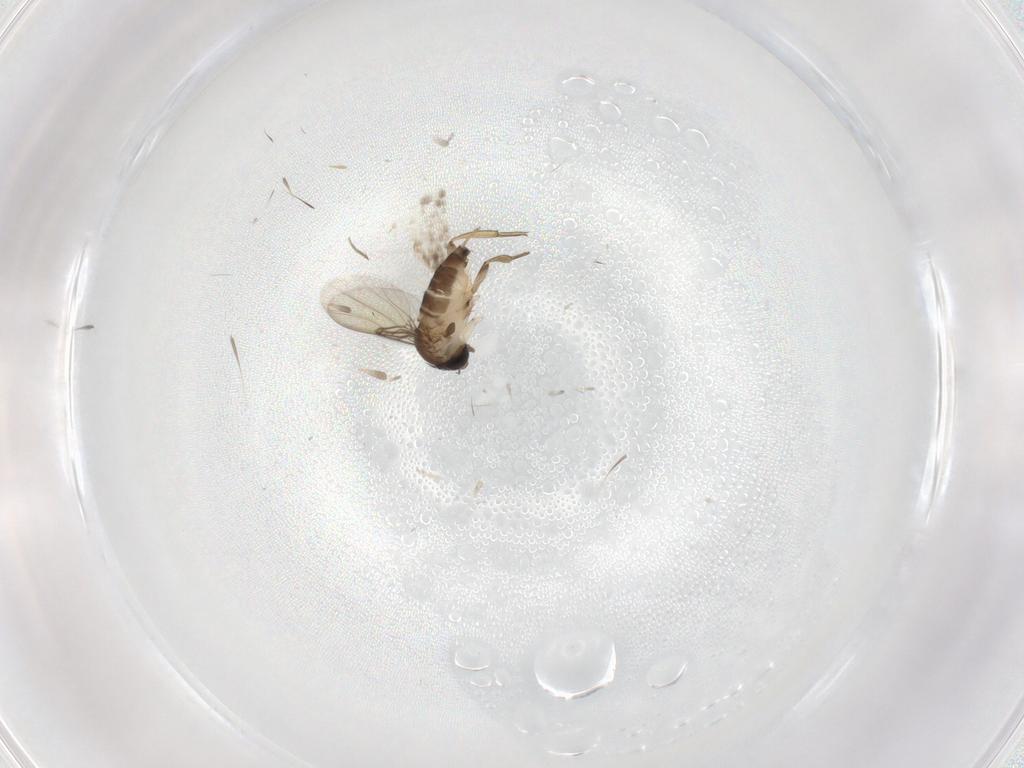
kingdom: Animalia
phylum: Arthropoda
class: Insecta
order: Diptera
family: Phoridae
